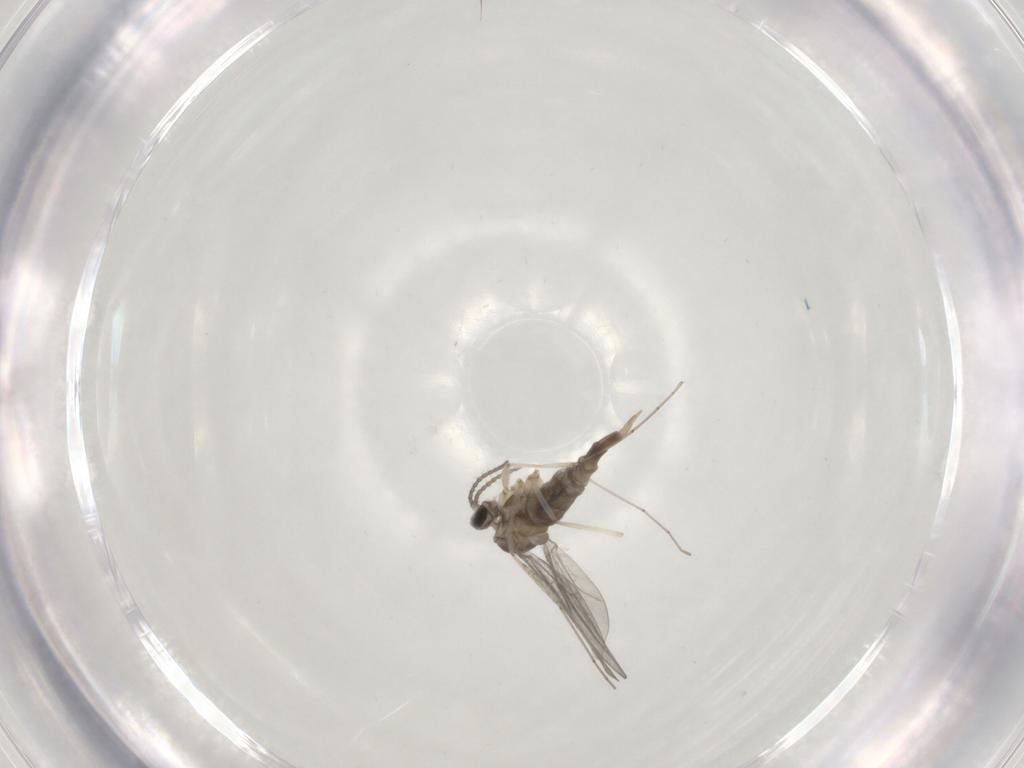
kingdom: Animalia
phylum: Arthropoda
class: Insecta
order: Diptera
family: Cecidomyiidae
